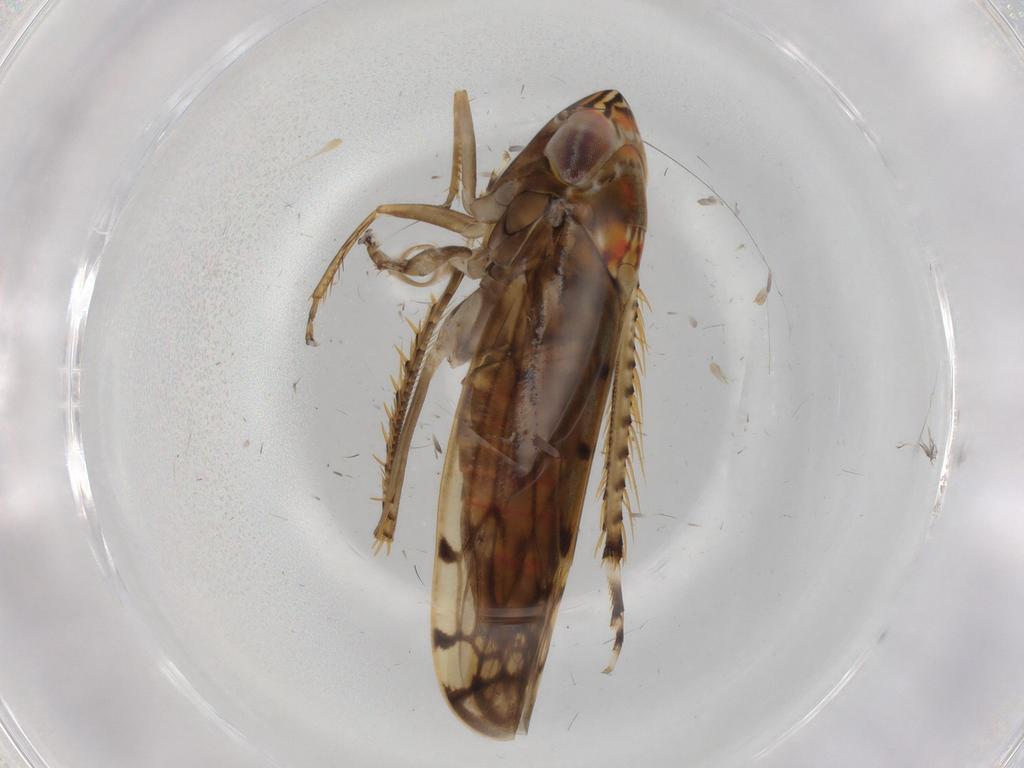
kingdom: Animalia
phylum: Arthropoda
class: Insecta
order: Hemiptera
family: Cicadellidae
